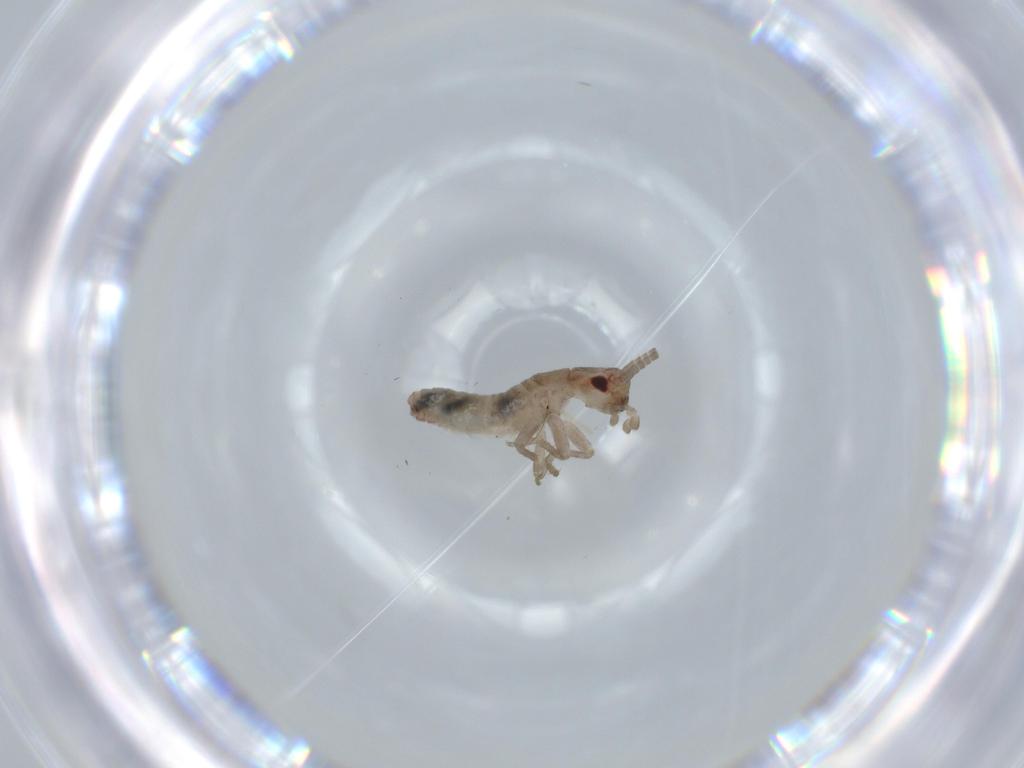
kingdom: Animalia
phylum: Arthropoda
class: Insecta
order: Orthoptera
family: Mogoplistidae
